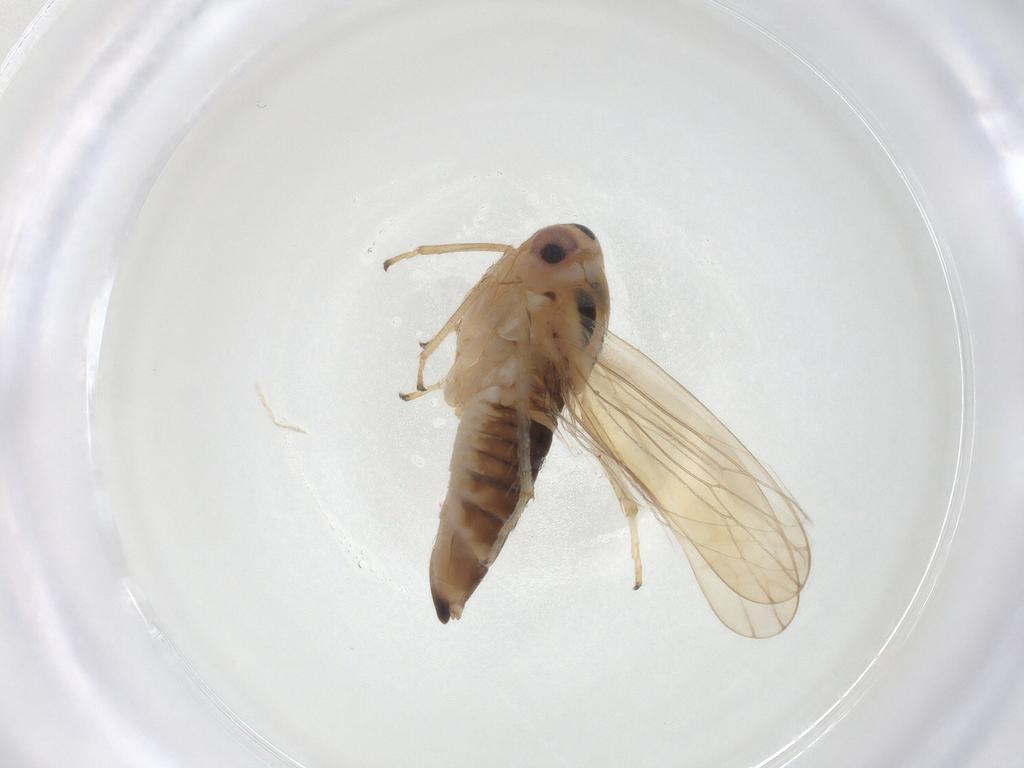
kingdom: Animalia
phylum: Arthropoda
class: Insecta
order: Hemiptera
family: Cicadellidae
